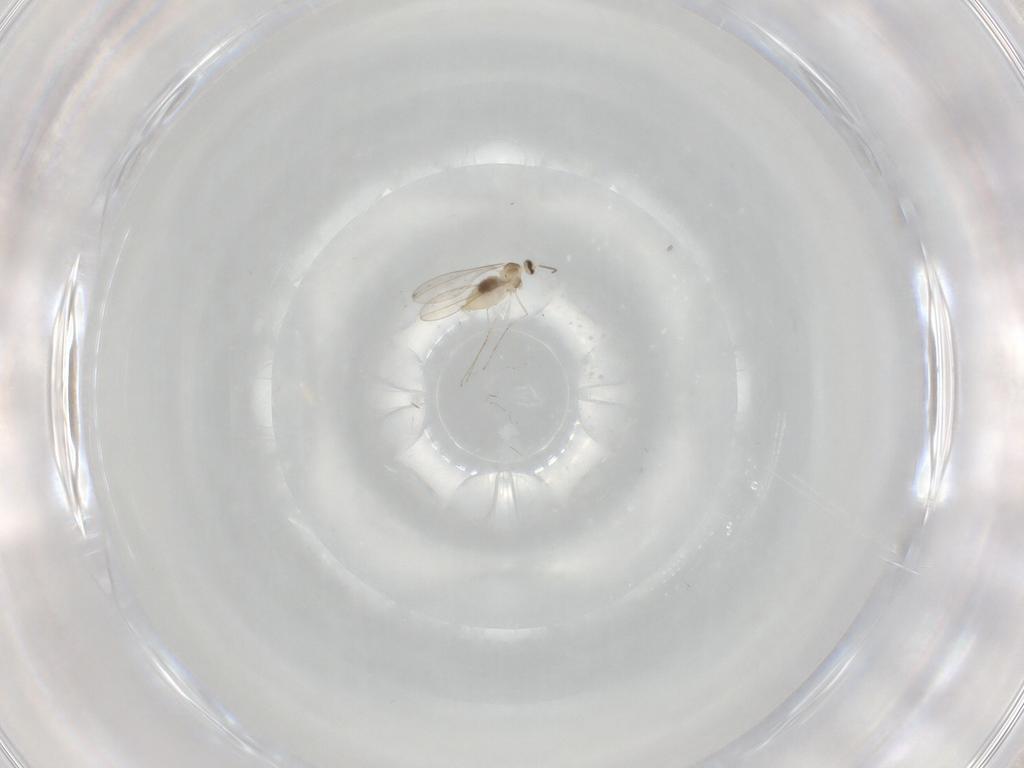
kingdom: Animalia
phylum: Arthropoda
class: Insecta
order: Diptera
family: Cecidomyiidae
